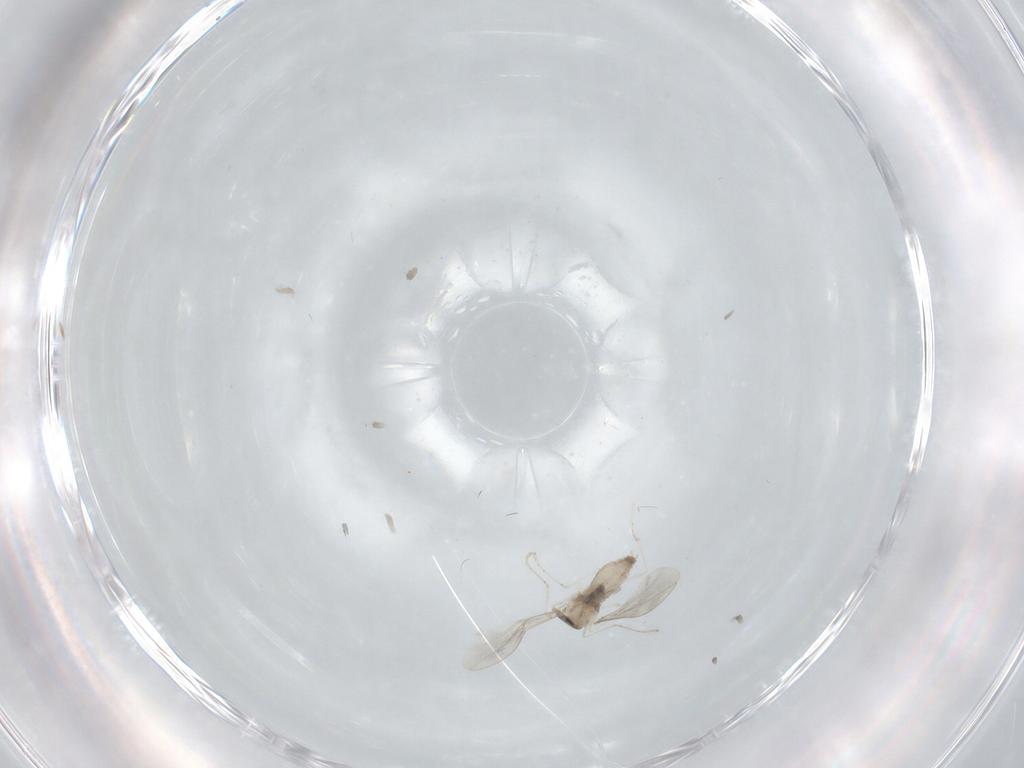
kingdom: Animalia
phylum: Arthropoda
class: Insecta
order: Diptera
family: Cecidomyiidae
